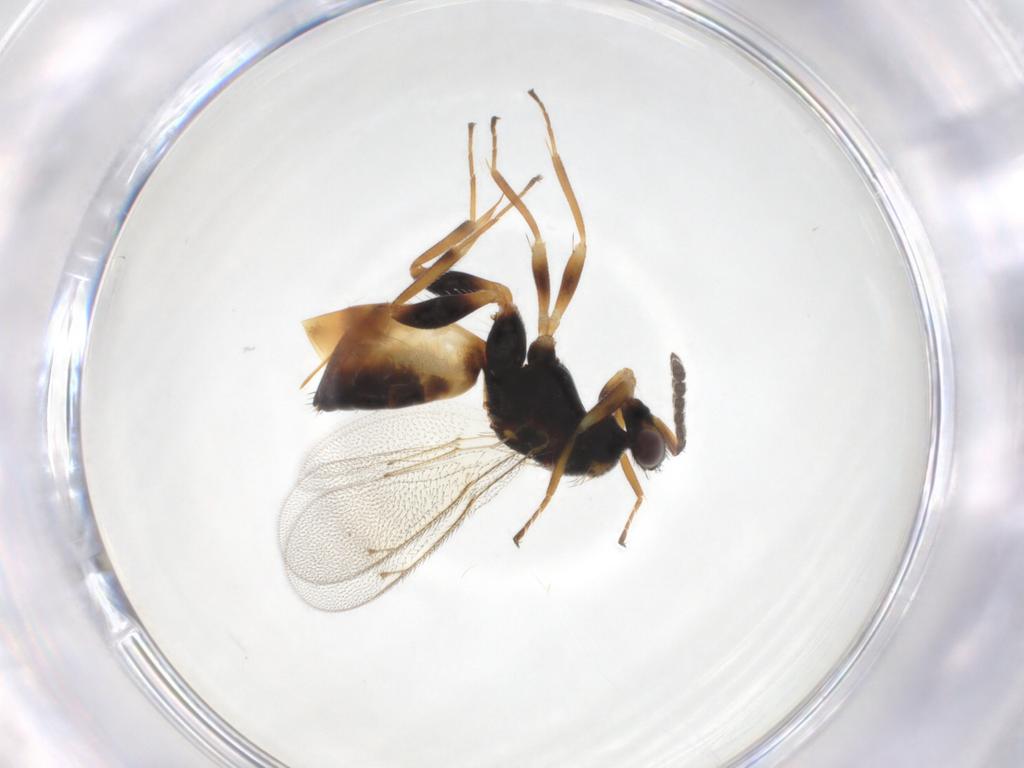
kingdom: Animalia
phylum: Arthropoda
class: Insecta
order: Hymenoptera
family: Eulophidae
